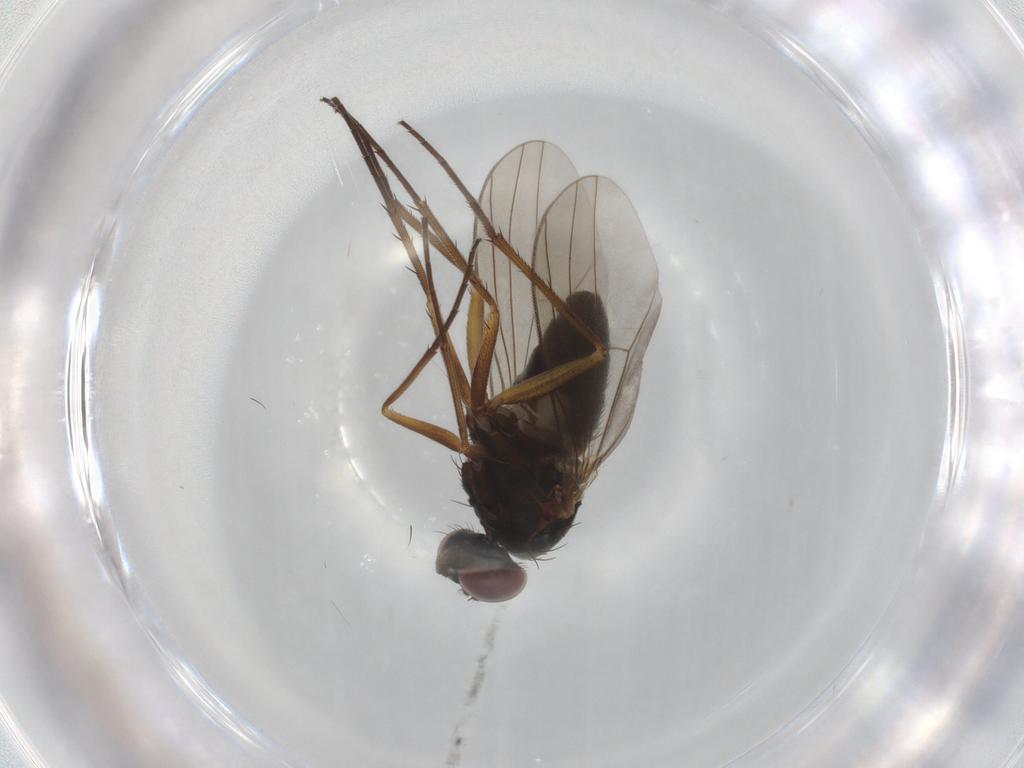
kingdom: Animalia
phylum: Arthropoda
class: Insecta
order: Diptera
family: Dolichopodidae
